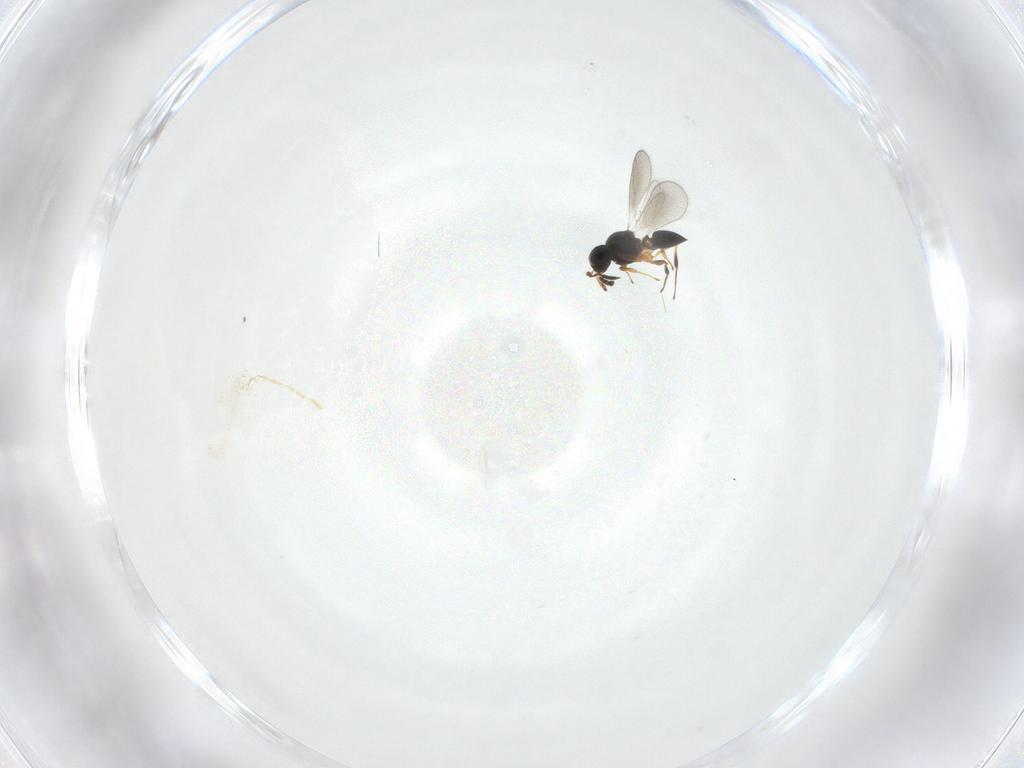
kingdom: Animalia
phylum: Arthropoda
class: Insecta
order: Hymenoptera
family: Platygastridae
